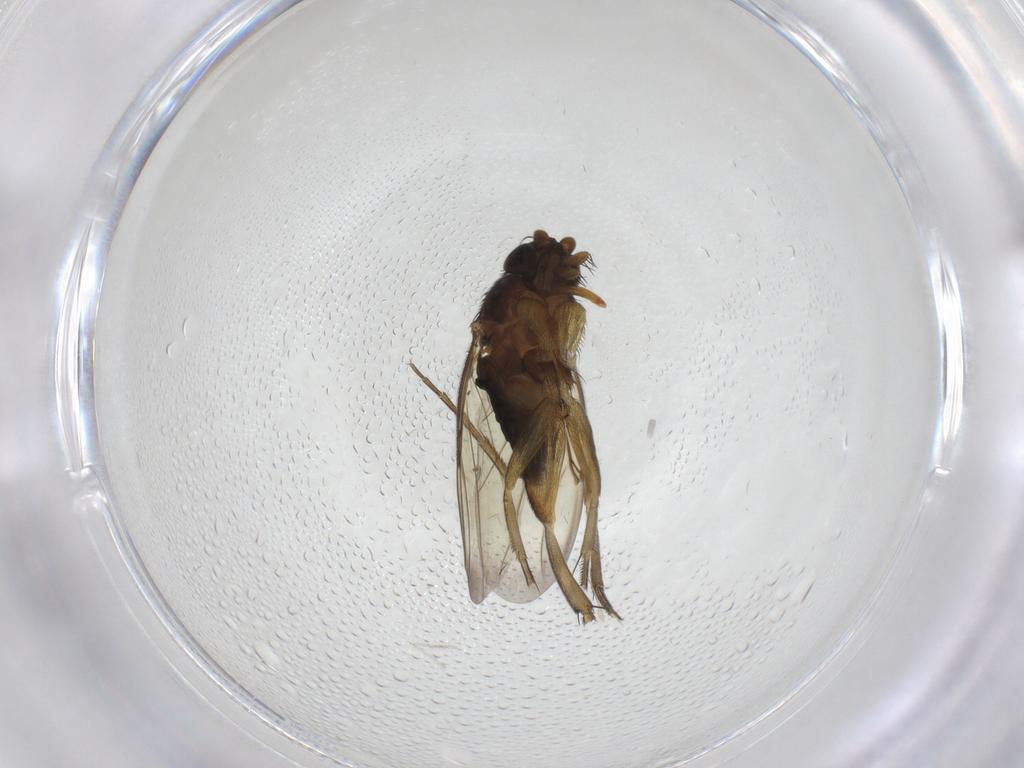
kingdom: Animalia
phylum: Arthropoda
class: Insecta
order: Diptera
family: Phoridae
